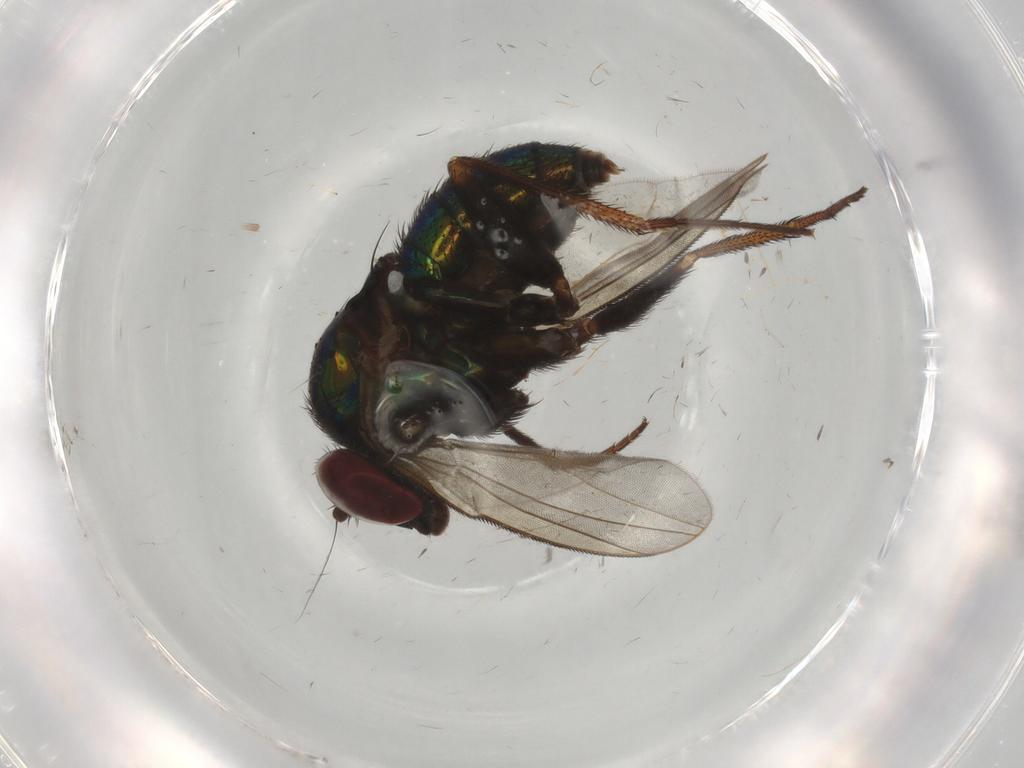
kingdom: Animalia
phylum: Arthropoda
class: Insecta
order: Diptera
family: Dolichopodidae
